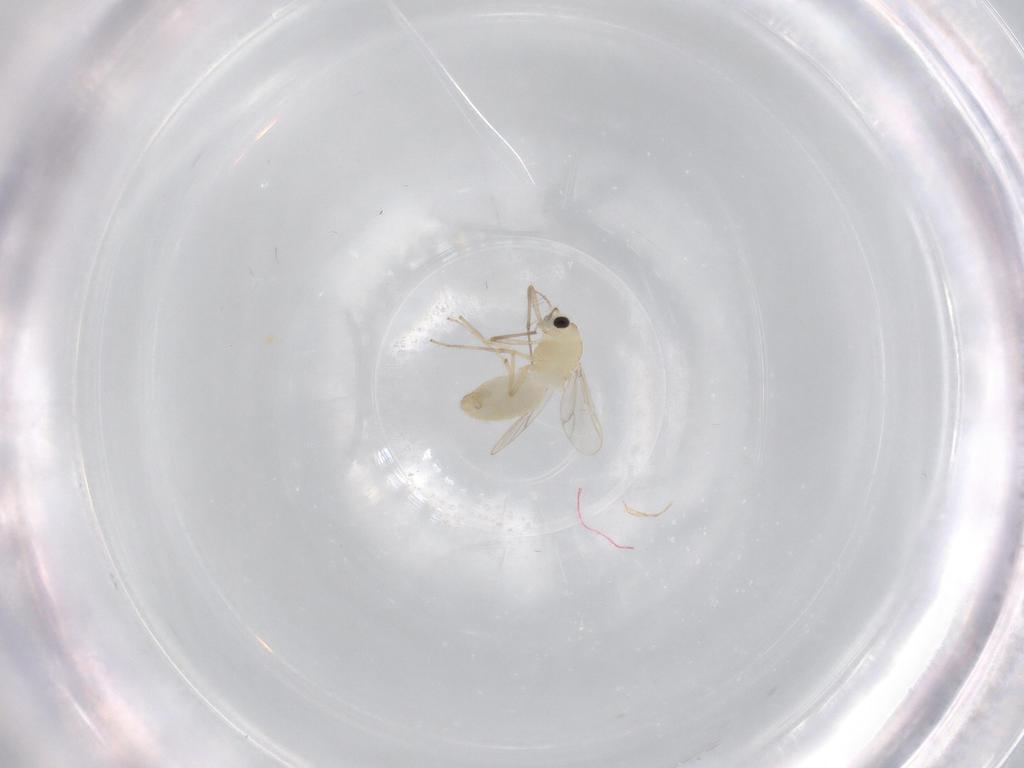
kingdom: Animalia
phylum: Arthropoda
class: Insecta
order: Diptera
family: Chironomidae
